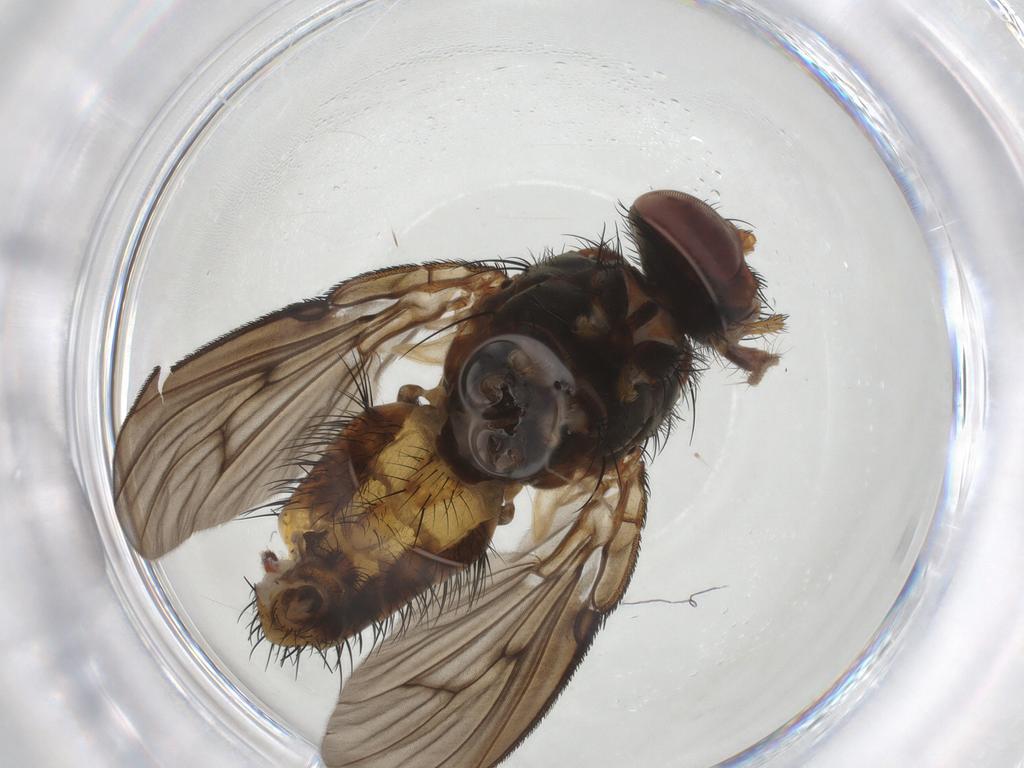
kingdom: Animalia
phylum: Arthropoda
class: Insecta
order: Diptera
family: Muscidae
